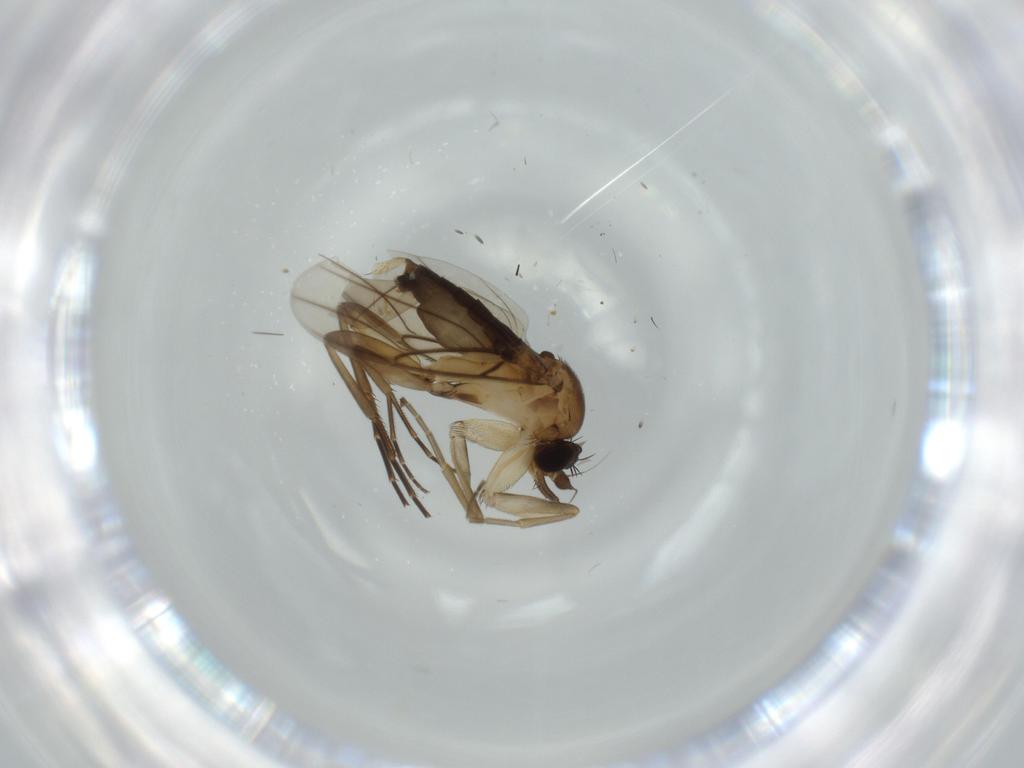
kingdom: Animalia
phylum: Arthropoda
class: Insecta
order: Diptera
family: Phoridae
